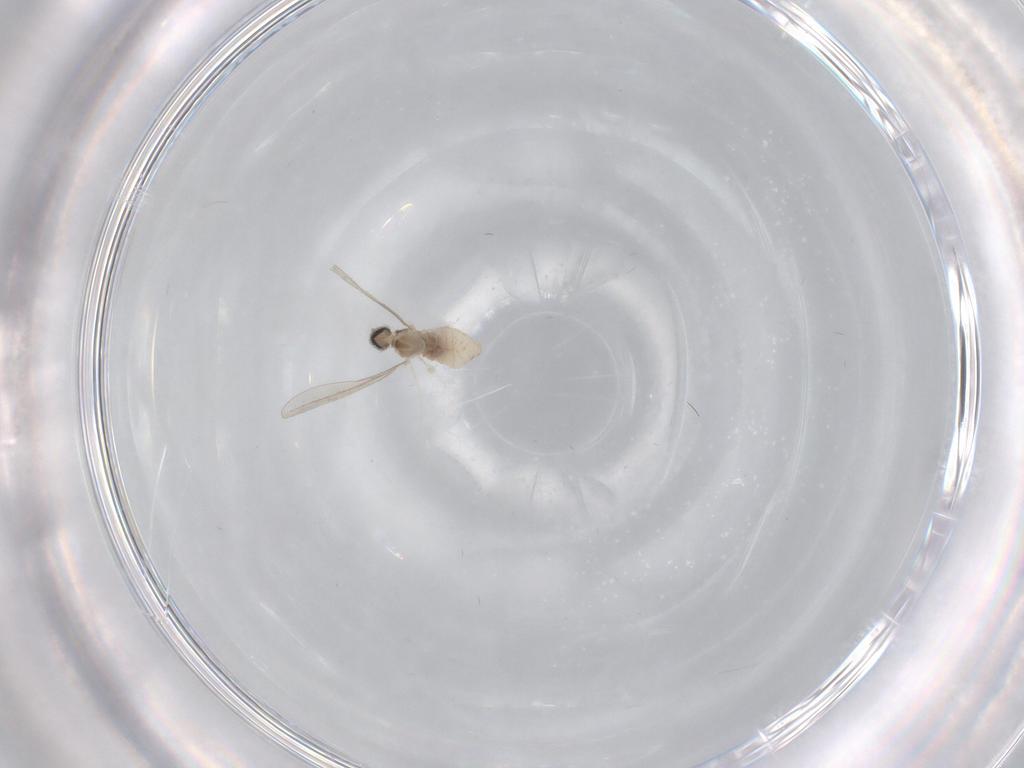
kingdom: Animalia
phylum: Arthropoda
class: Insecta
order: Diptera
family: Cecidomyiidae
